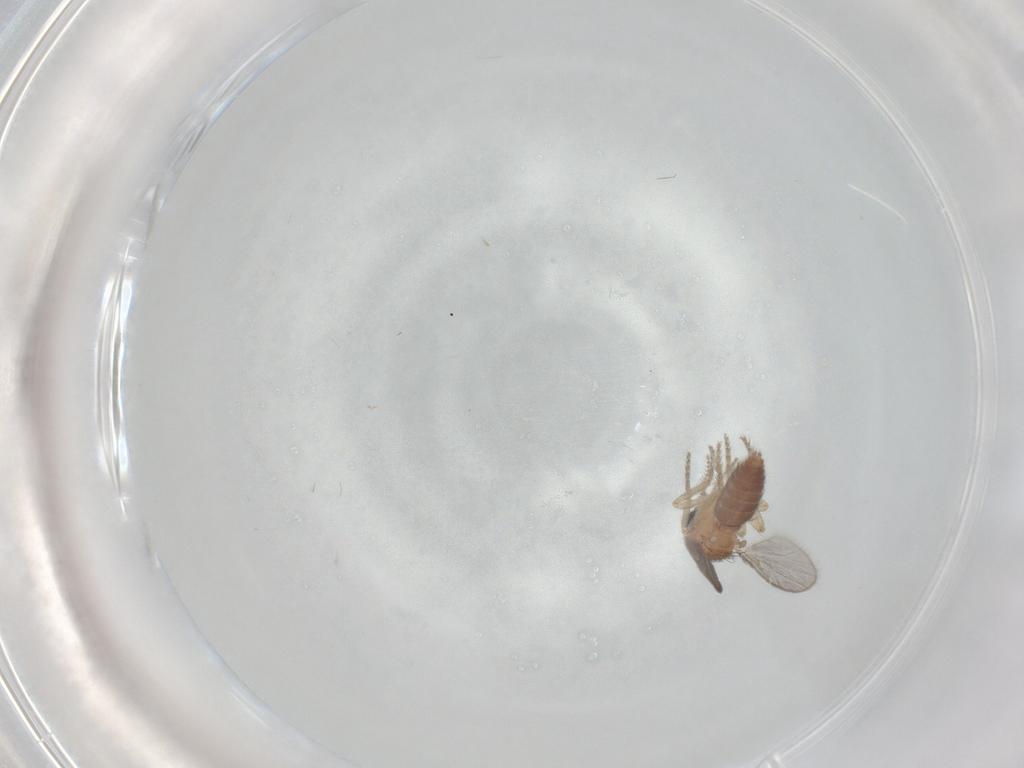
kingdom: Animalia
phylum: Arthropoda
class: Insecta
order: Diptera
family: Ceratopogonidae
